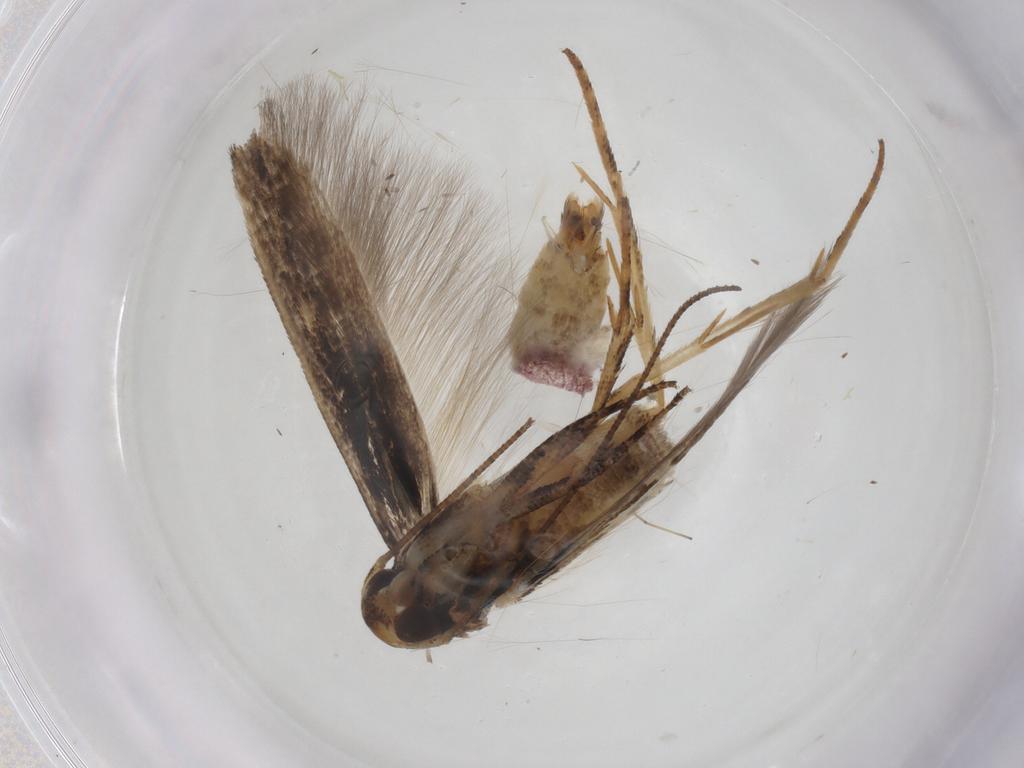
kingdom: Animalia
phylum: Arthropoda
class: Insecta
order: Lepidoptera
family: Elachistidae
